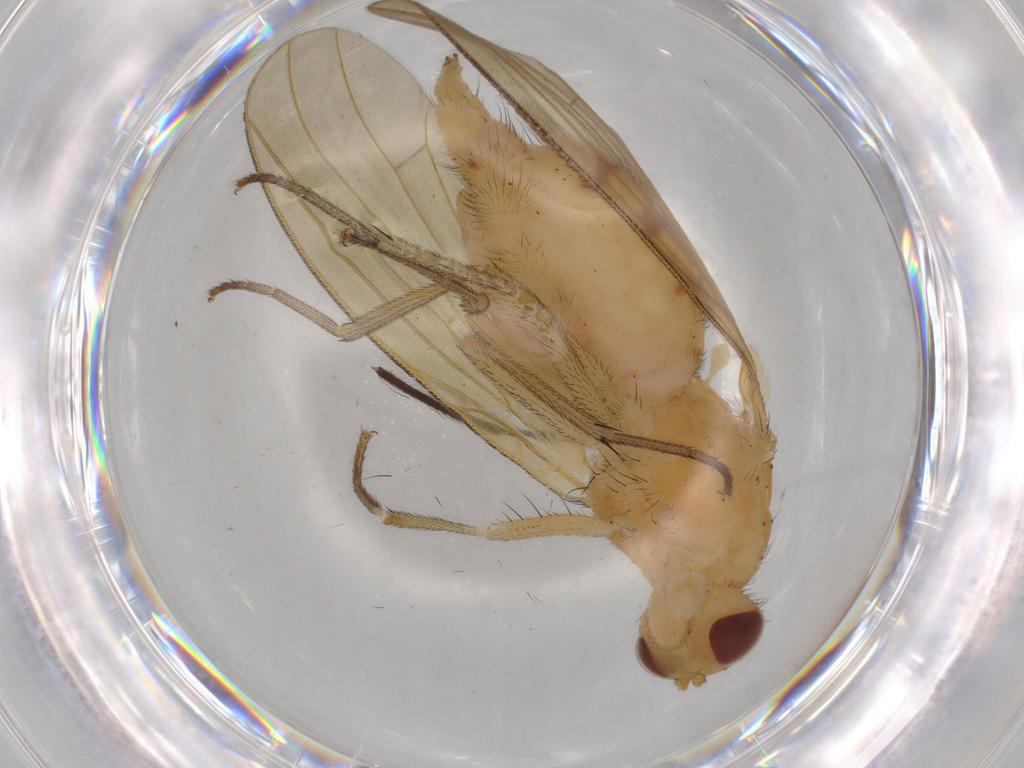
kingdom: Animalia
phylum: Arthropoda
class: Insecta
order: Diptera
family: Hybotidae
